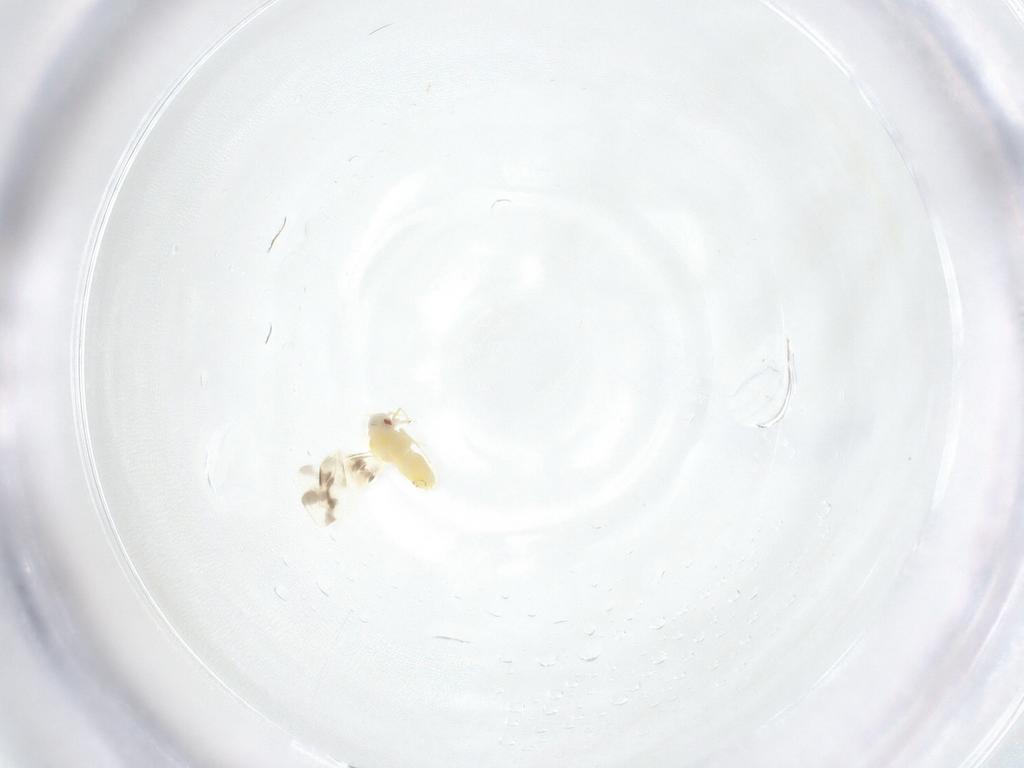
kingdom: Animalia
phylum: Arthropoda
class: Insecta
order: Hemiptera
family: Aleyrodidae
